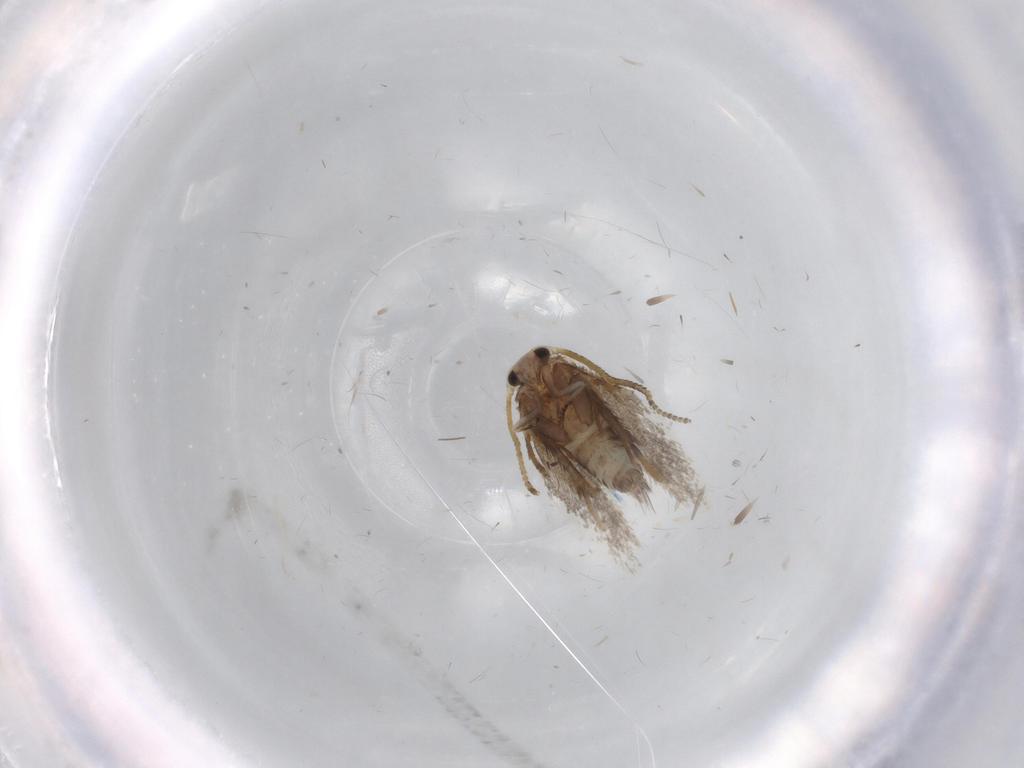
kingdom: Animalia
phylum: Arthropoda
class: Insecta
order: Lepidoptera
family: Nepticulidae
